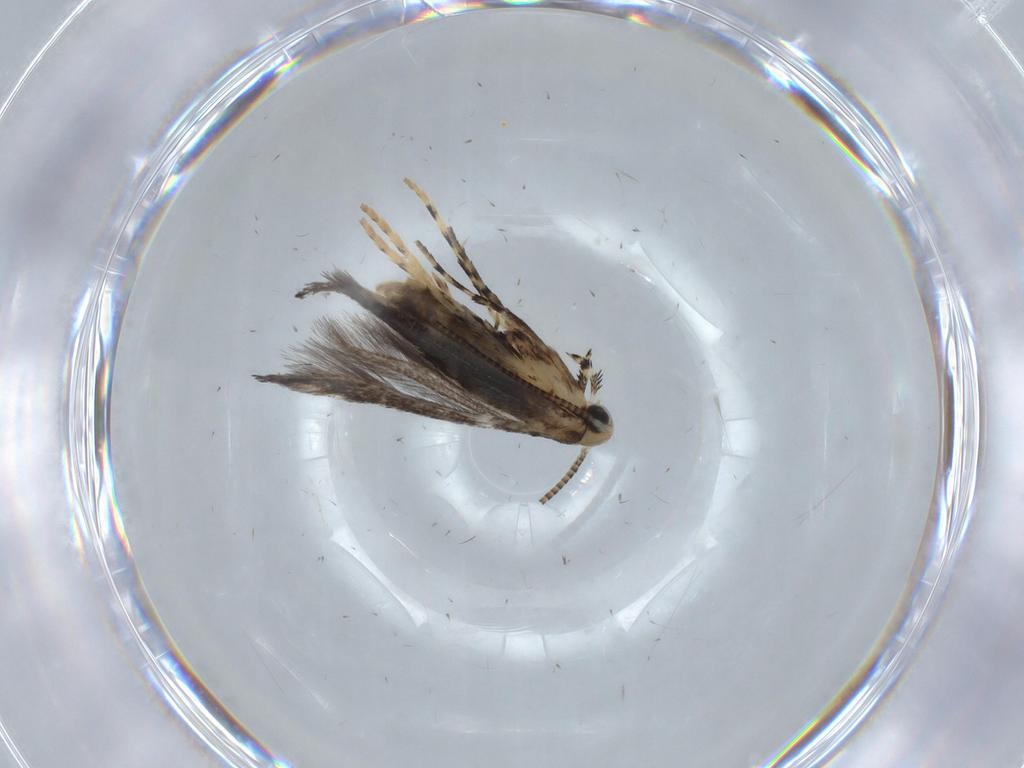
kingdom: Animalia
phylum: Arthropoda
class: Insecta
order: Lepidoptera
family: Gracillariidae
